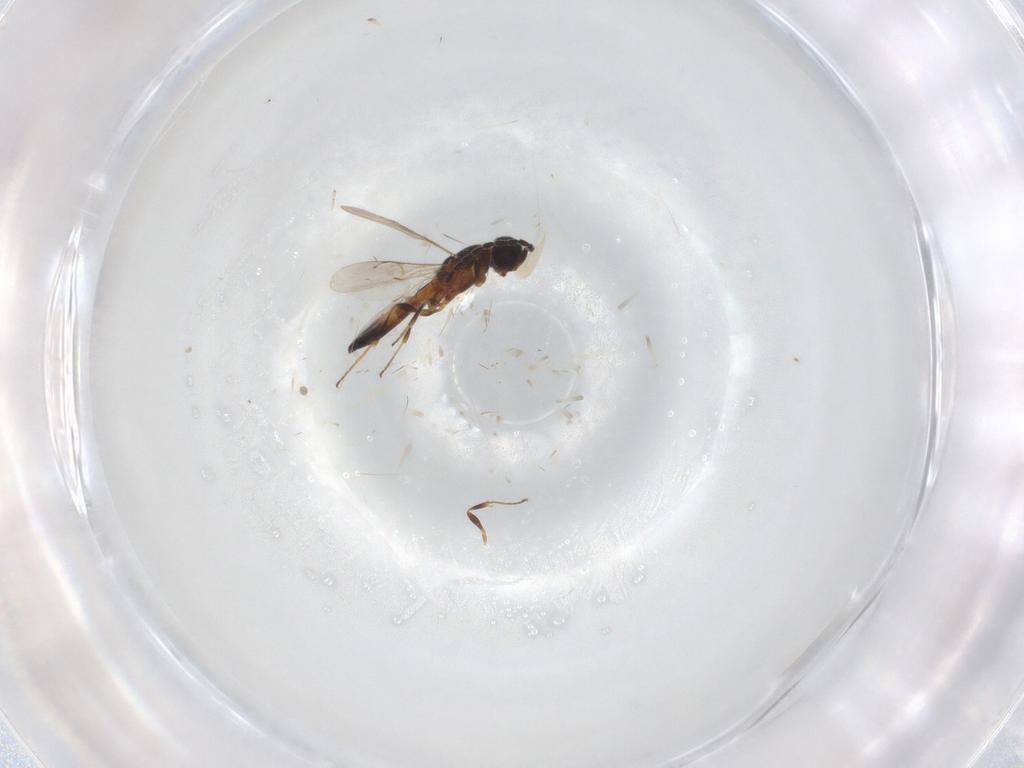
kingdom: Animalia
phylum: Arthropoda
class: Insecta
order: Hymenoptera
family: Scelionidae
